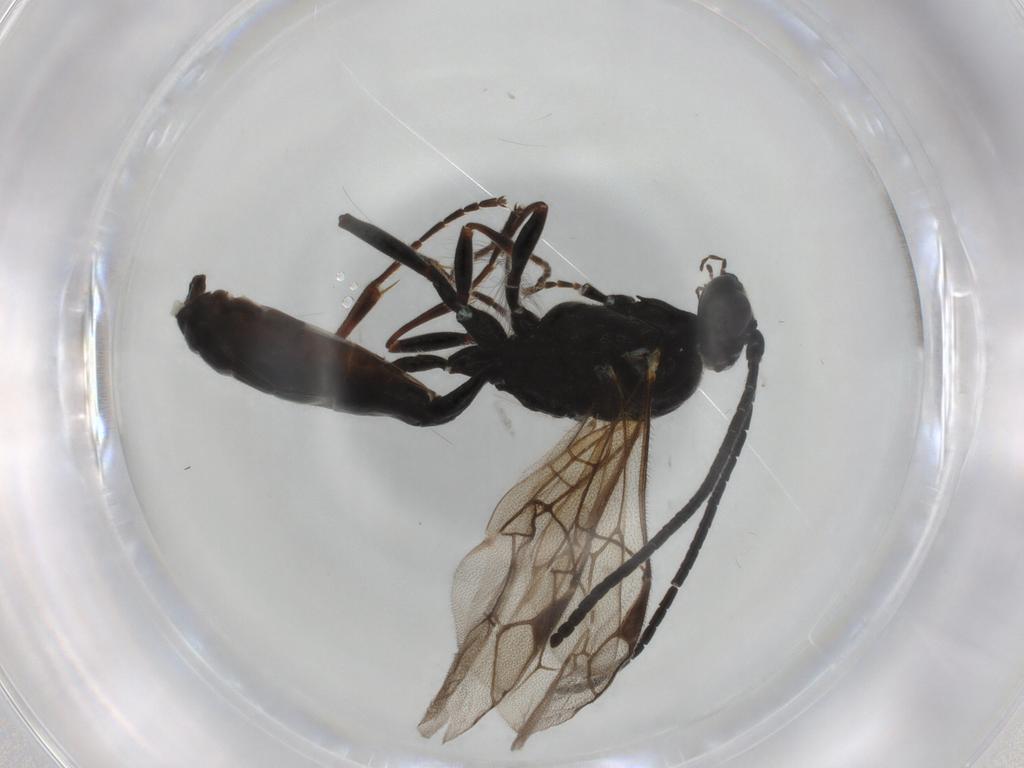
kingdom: Animalia
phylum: Arthropoda
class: Insecta
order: Hymenoptera
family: Ichneumonidae
